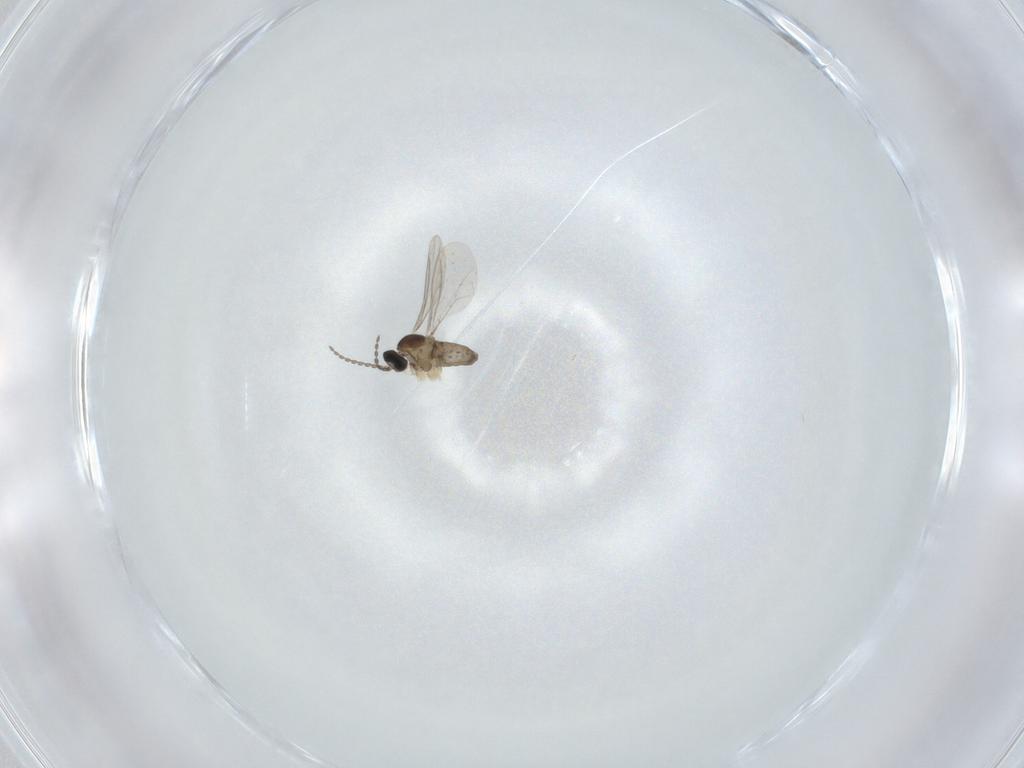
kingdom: Animalia
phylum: Arthropoda
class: Insecta
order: Diptera
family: Cecidomyiidae
